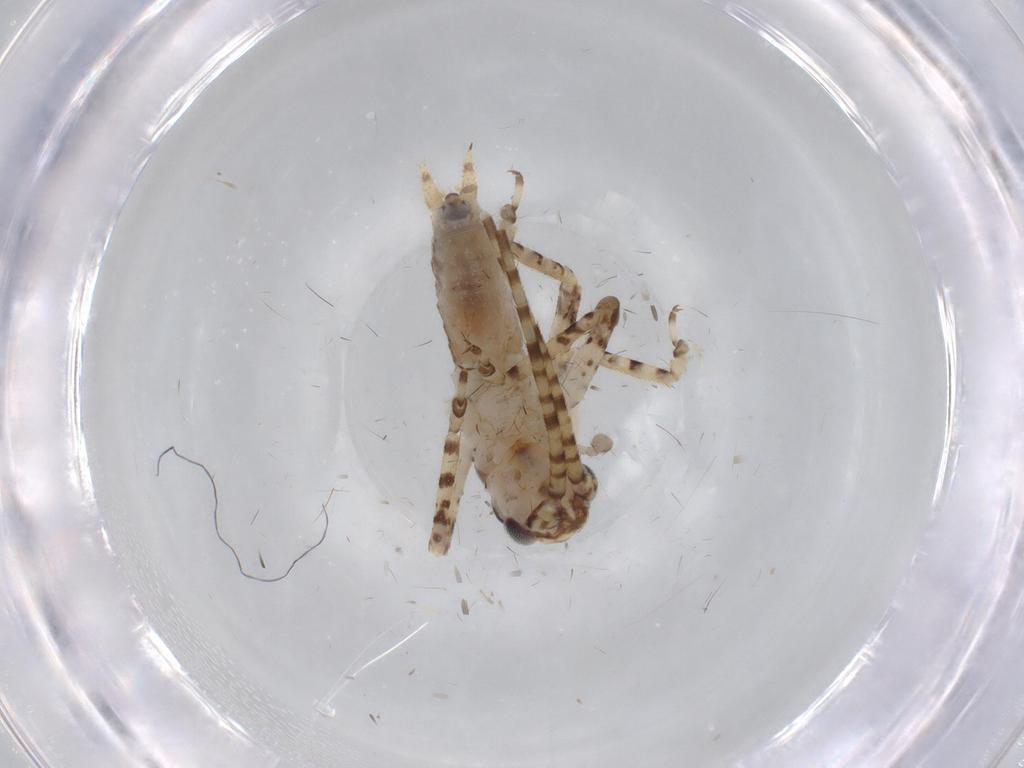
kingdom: Animalia
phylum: Arthropoda
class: Insecta
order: Orthoptera
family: Gryllidae
